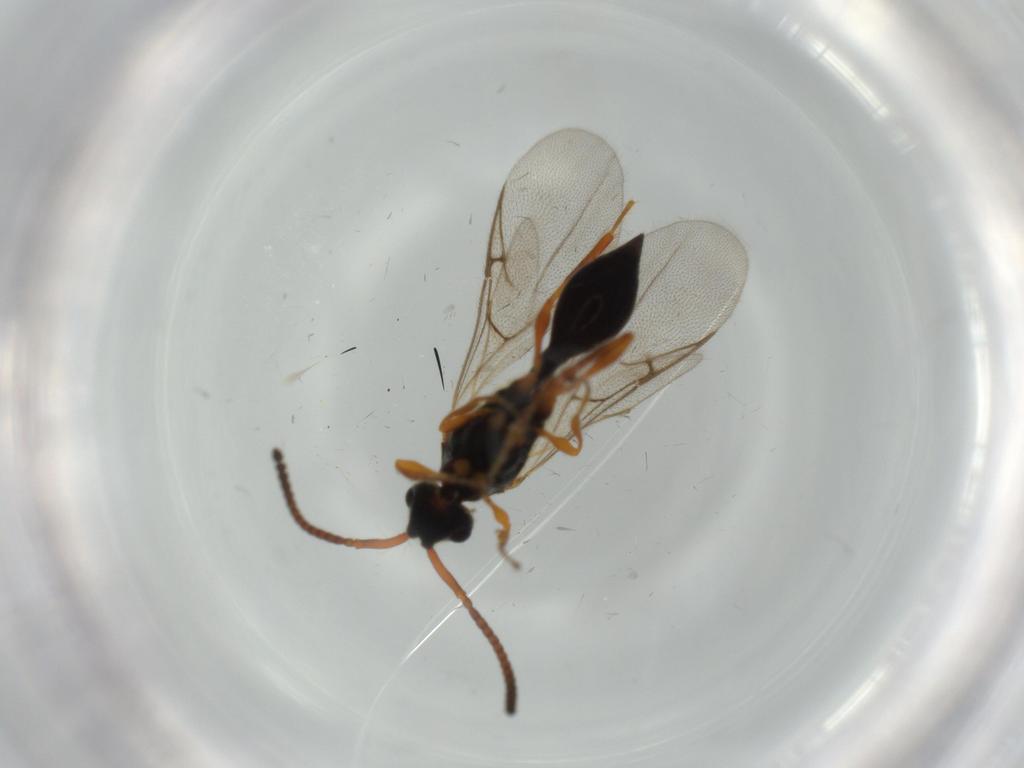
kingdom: Animalia
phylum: Arthropoda
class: Insecta
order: Hymenoptera
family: Diapriidae
